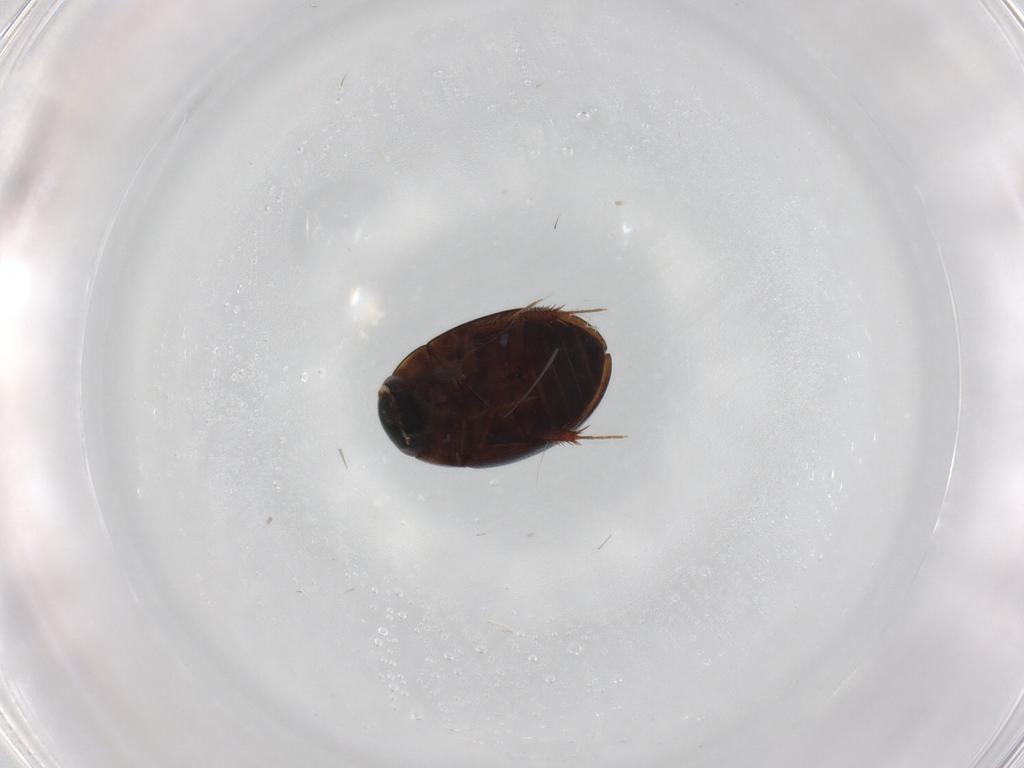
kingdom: Animalia
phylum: Arthropoda
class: Insecta
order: Coleoptera
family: Hydrophilidae
